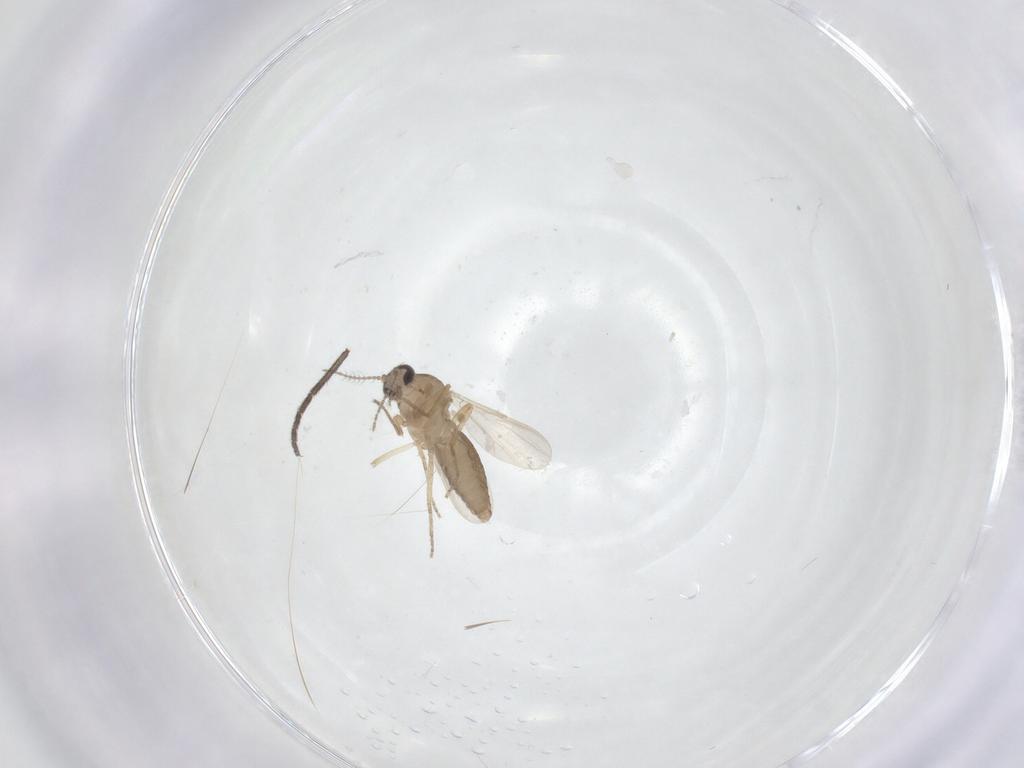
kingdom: Animalia
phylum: Arthropoda
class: Insecta
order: Diptera
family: Ceratopogonidae
